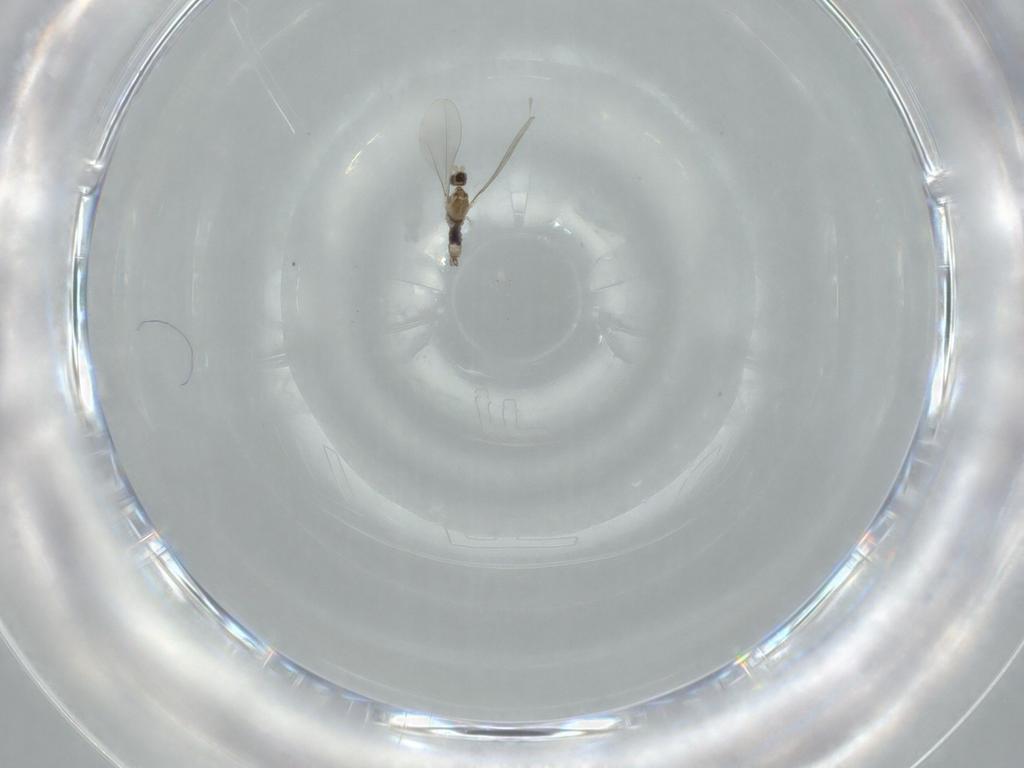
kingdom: Animalia
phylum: Arthropoda
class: Insecta
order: Diptera
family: Cecidomyiidae
